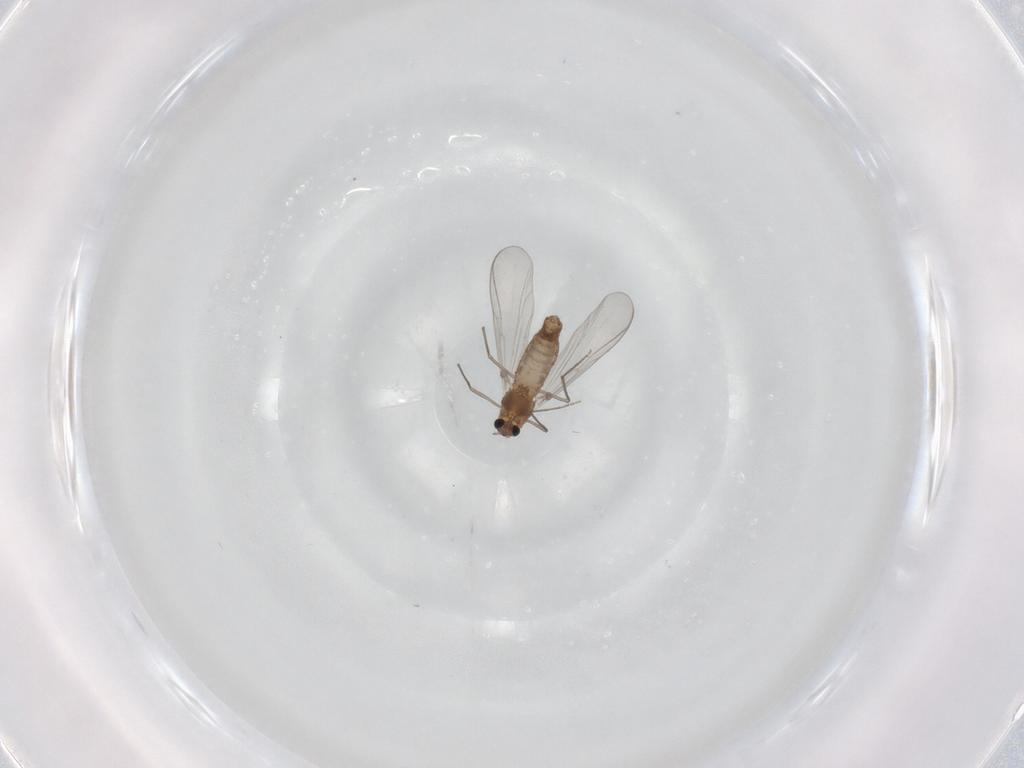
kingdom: Animalia
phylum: Arthropoda
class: Insecta
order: Diptera
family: Chironomidae
